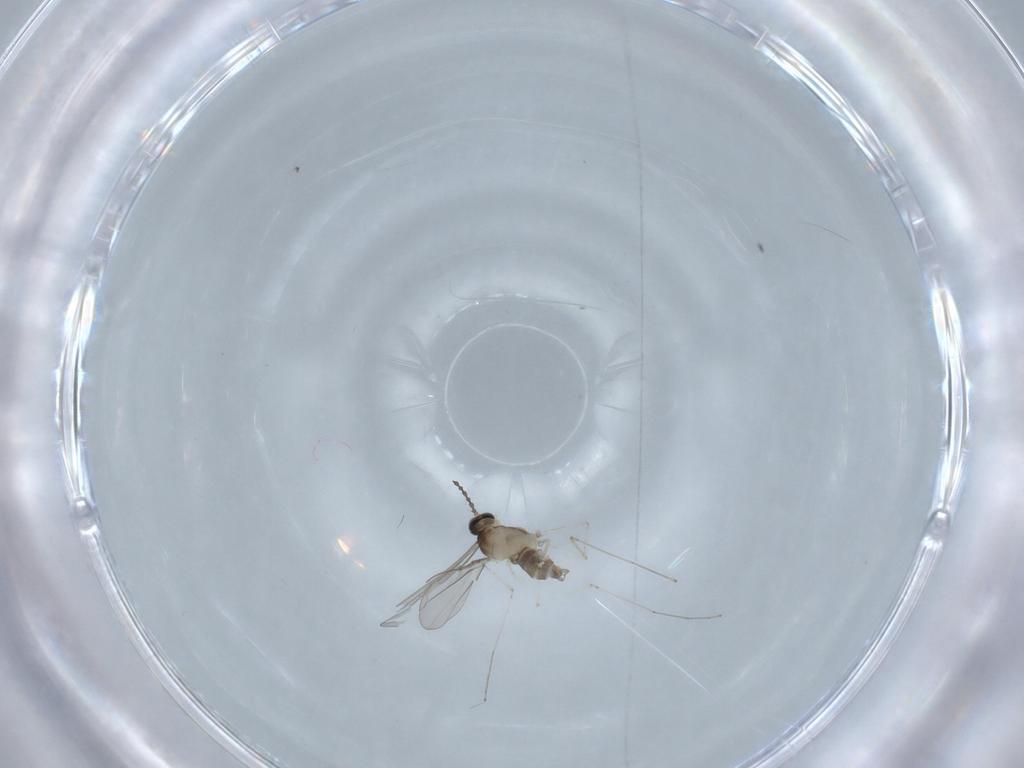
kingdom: Animalia
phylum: Arthropoda
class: Insecta
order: Diptera
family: Cecidomyiidae
